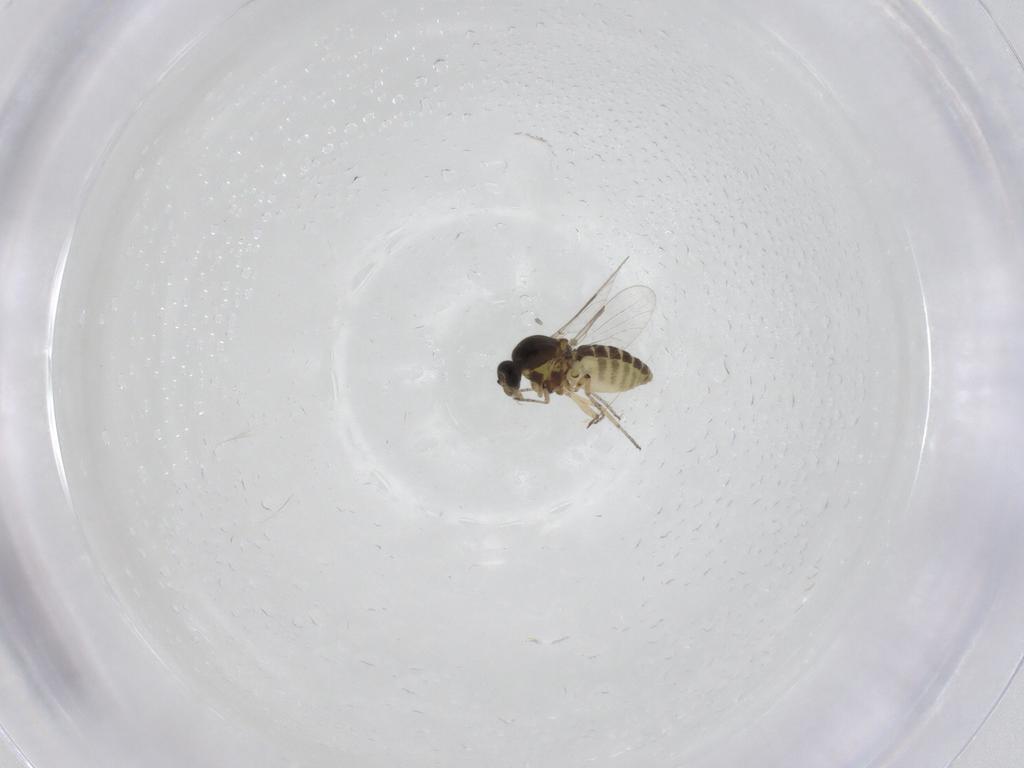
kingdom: Animalia
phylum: Arthropoda
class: Insecta
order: Diptera
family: Ceratopogonidae
